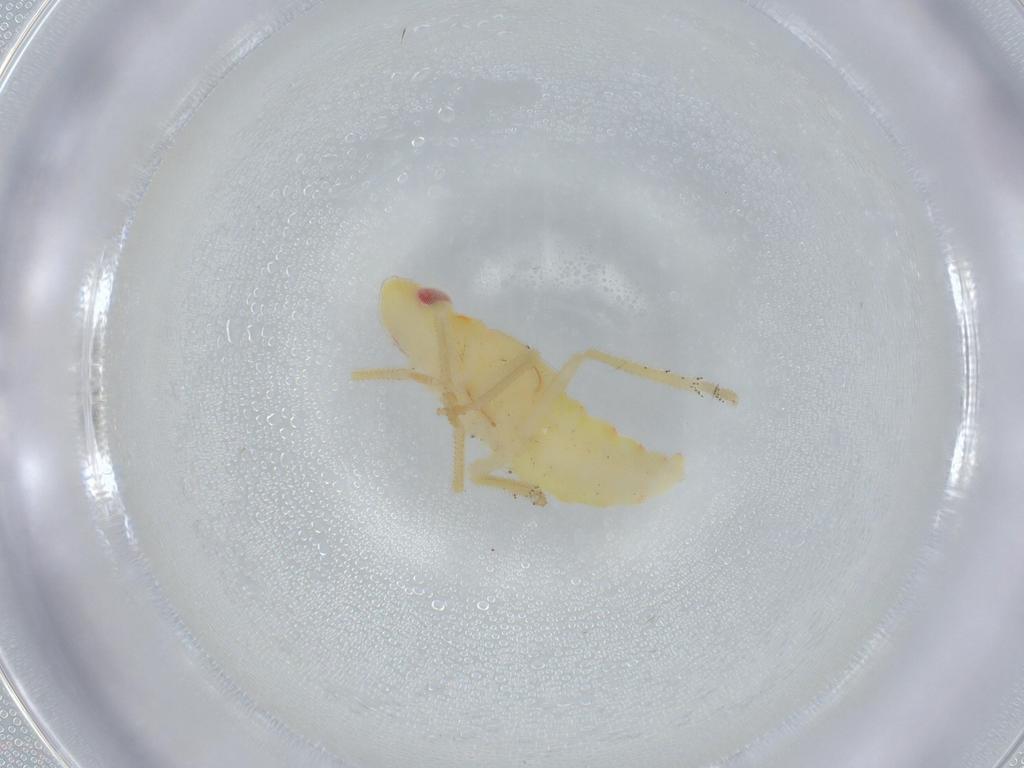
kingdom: Animalia
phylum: Arthropoda
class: Insecta
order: Hemiptera
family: Tropiduchidae
